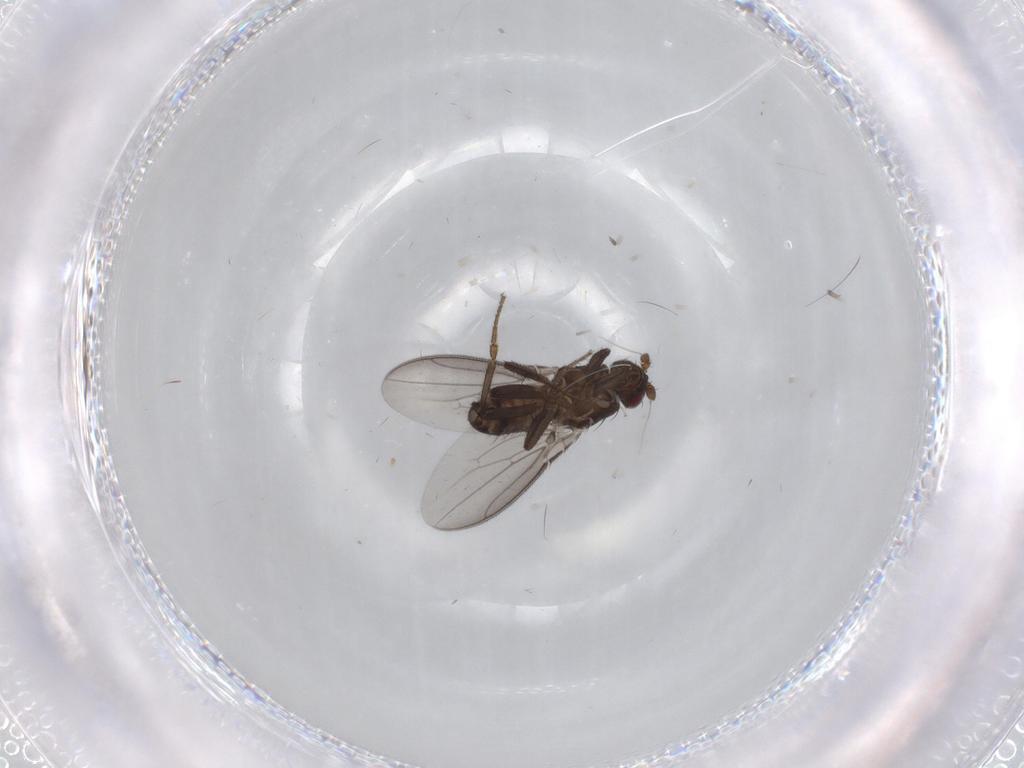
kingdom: Animalia
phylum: Arthropoda
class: Insecta
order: Diptera
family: Sphaeroceridae
